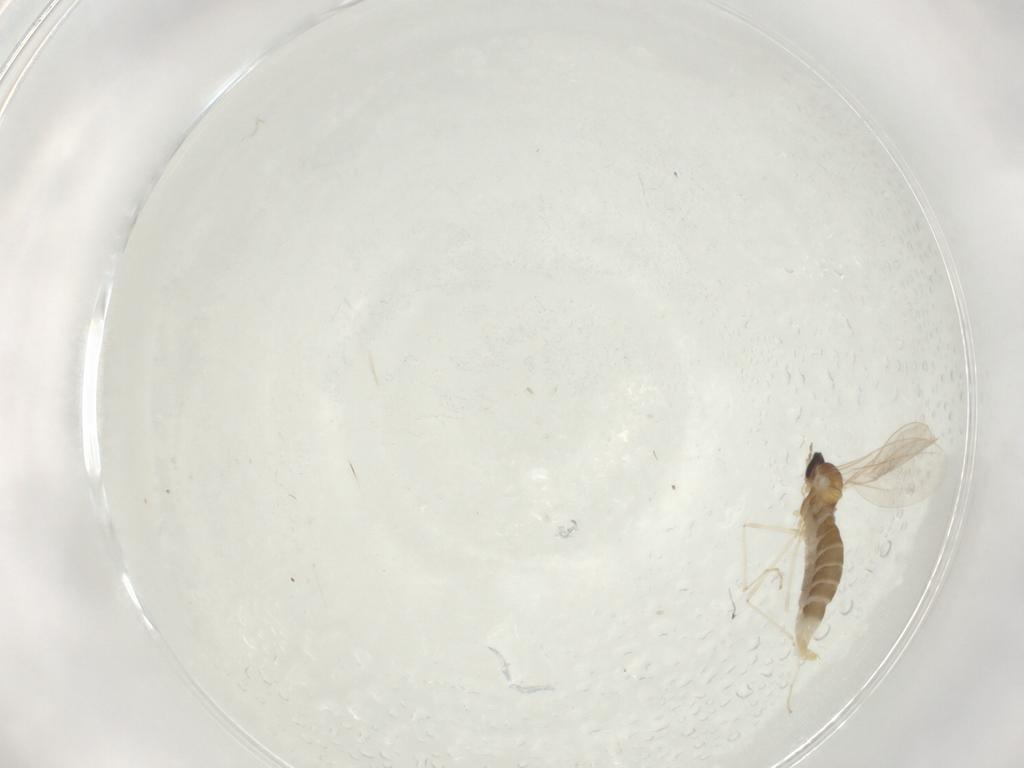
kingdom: Animalia
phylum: Arthropoda
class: Insecta
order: Diptera
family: Cecidomyiidae
